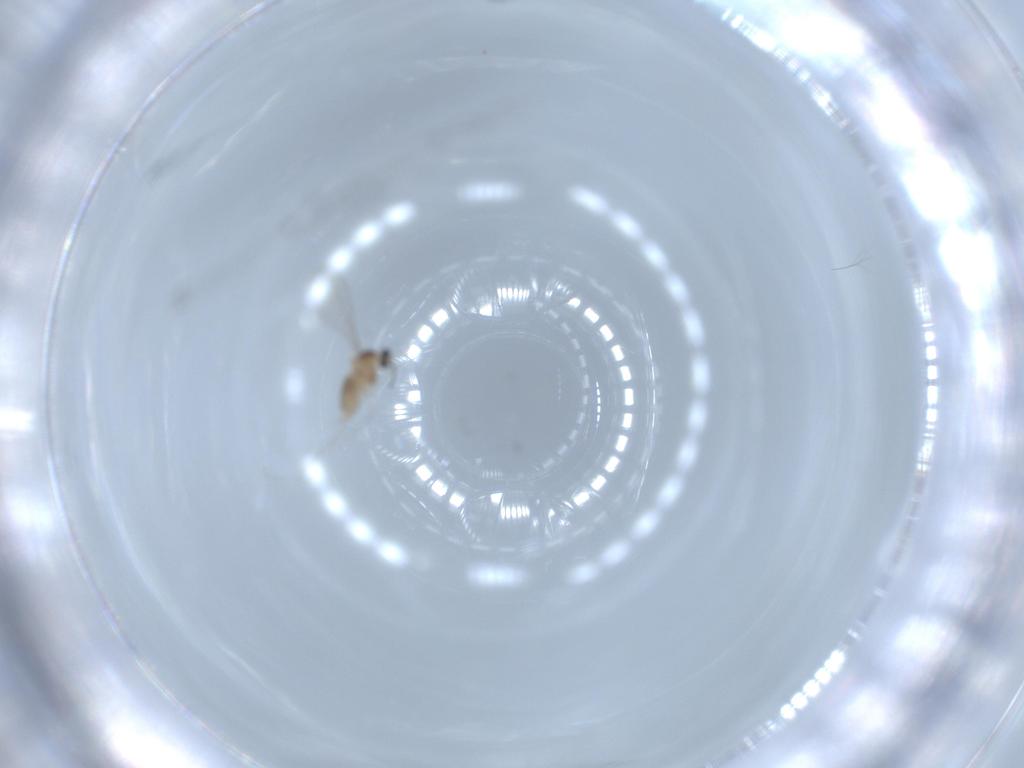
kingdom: Animalia
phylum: Arthropoda
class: Insecta
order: Diptera
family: Cecidomyiidae
